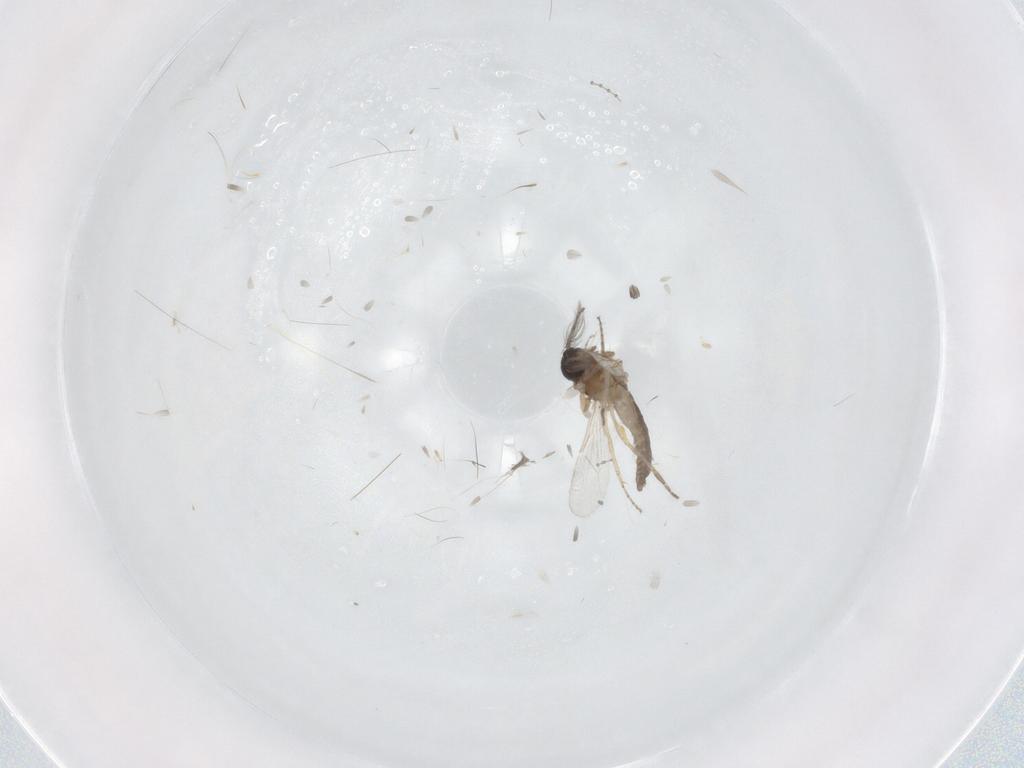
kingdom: Animalia
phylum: Arthropoda
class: Insecta
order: Diptera
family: Ceratopogonidae
